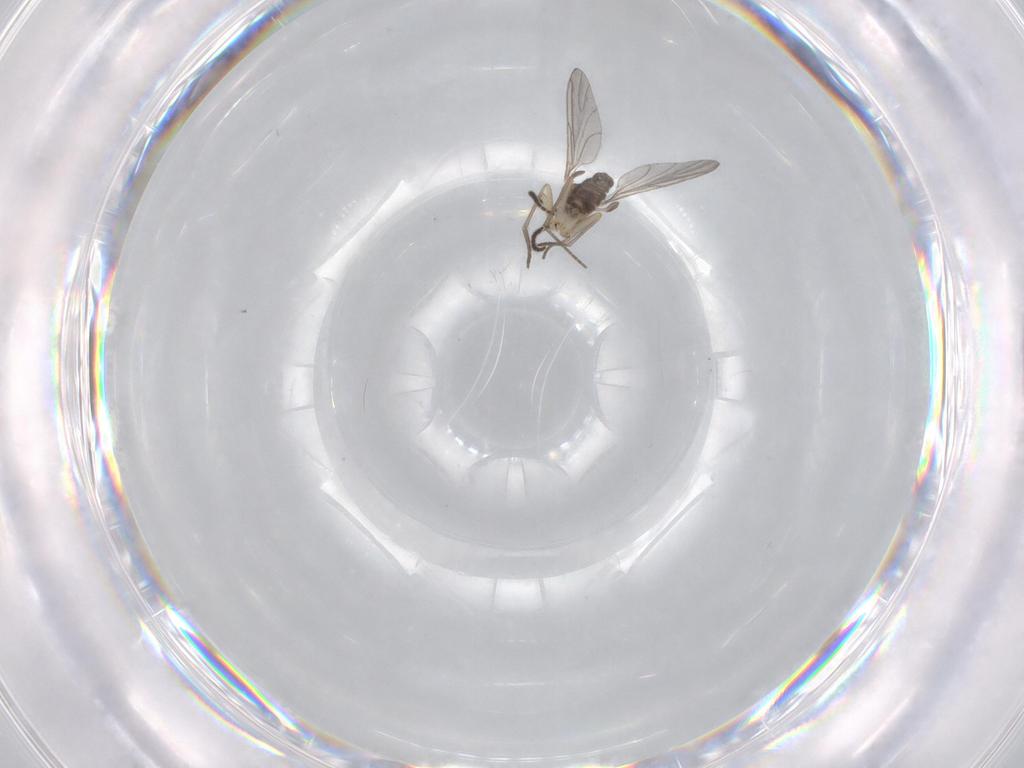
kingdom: Animalia
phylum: Arthropoda
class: Insecta
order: Diptera
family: Sciaridae
